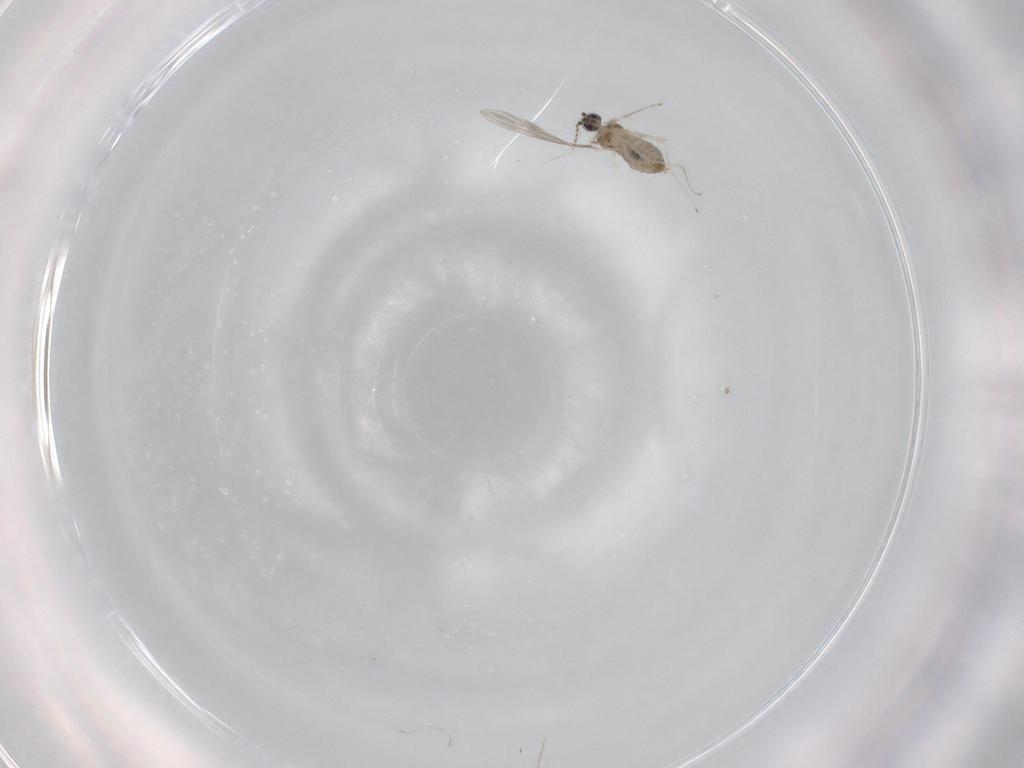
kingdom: Animalia
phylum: Arthropoda
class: Insecta
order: Diptera
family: Cecidomyiidae
